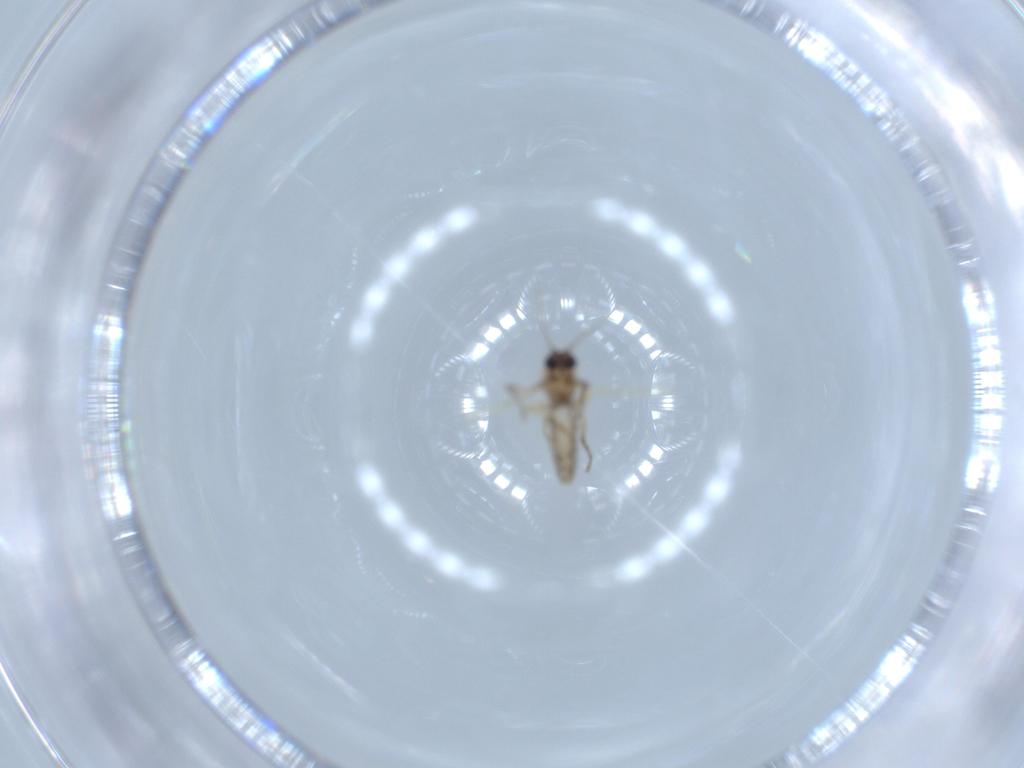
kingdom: Animalia
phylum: Arthropoda
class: Insecta
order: Diptera
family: Ceratopogonidae
